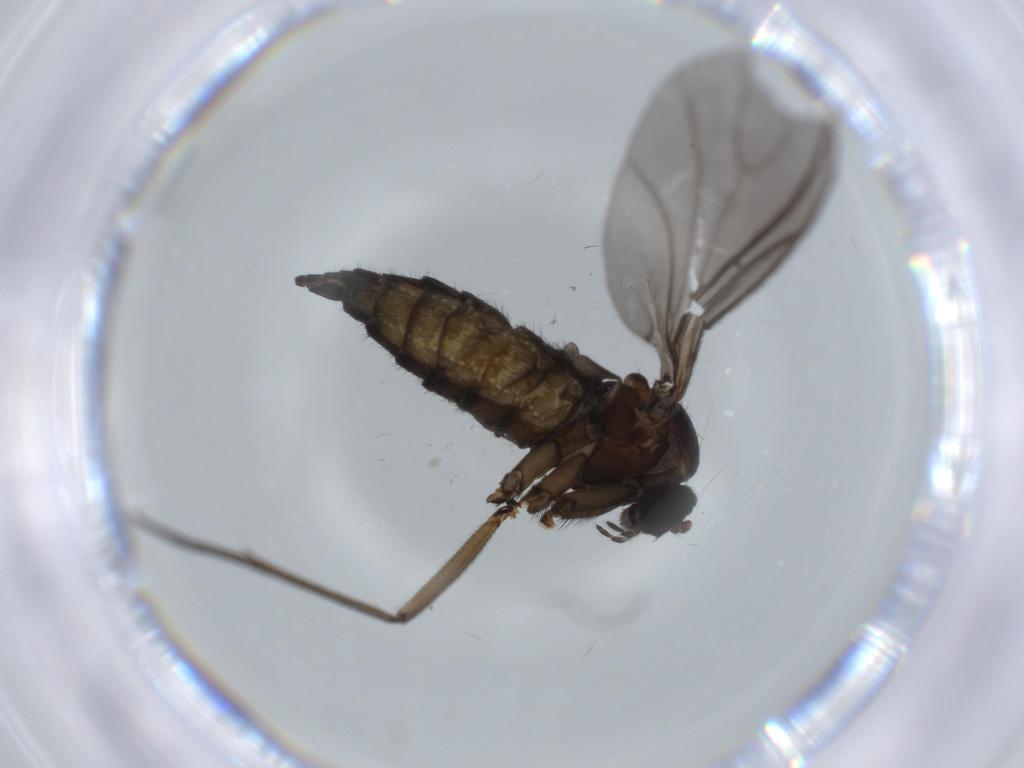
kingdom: Animalia
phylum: Arthropoda
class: Insecta
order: Diptera
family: Sciaridae
